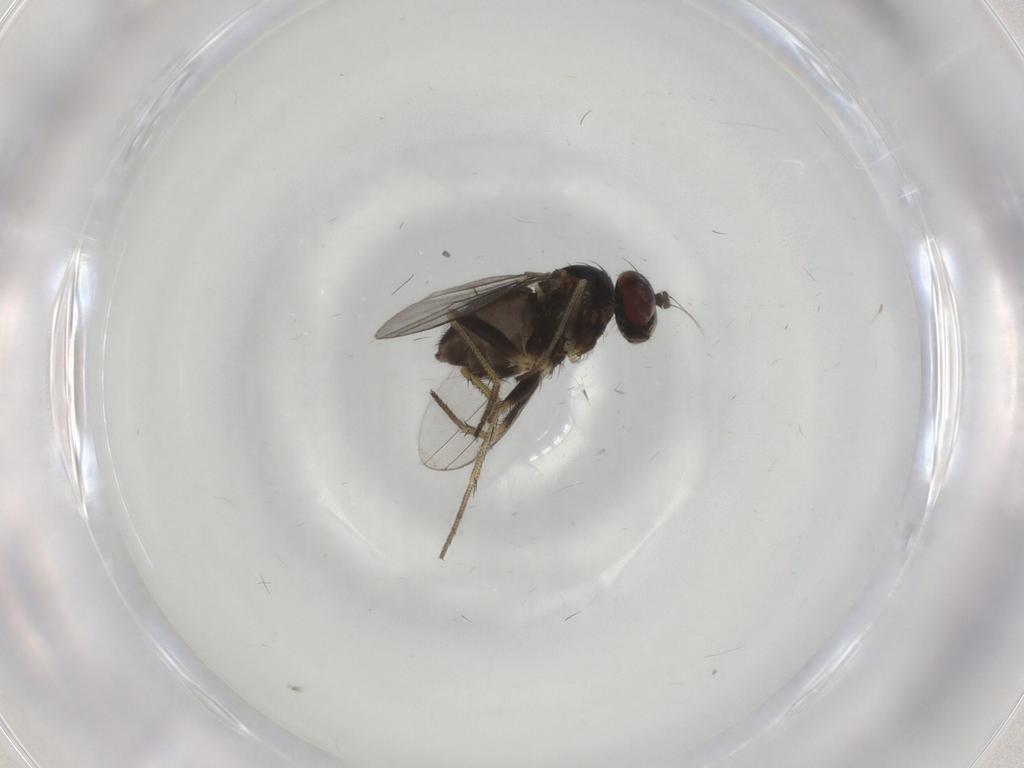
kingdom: Animalia
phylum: Arthropoda
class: Insecta
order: Diptera
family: Dolichopodidae
